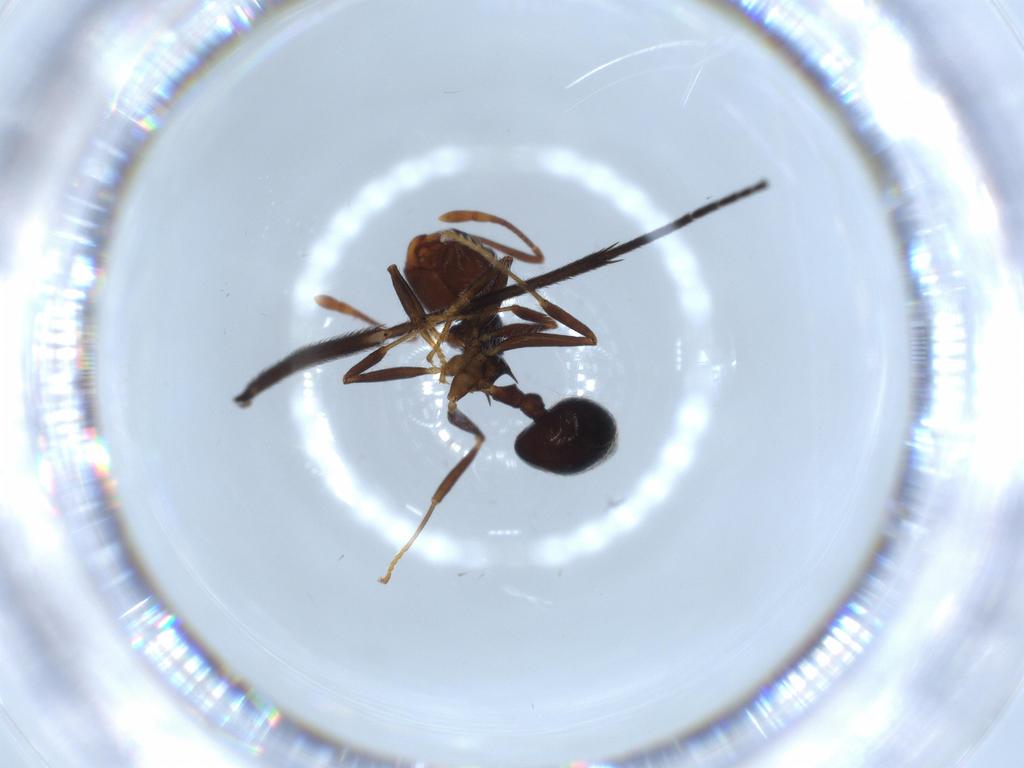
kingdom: Animalia
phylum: Arthropoda
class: Insecta
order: Hymenoptera
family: Formicidae
